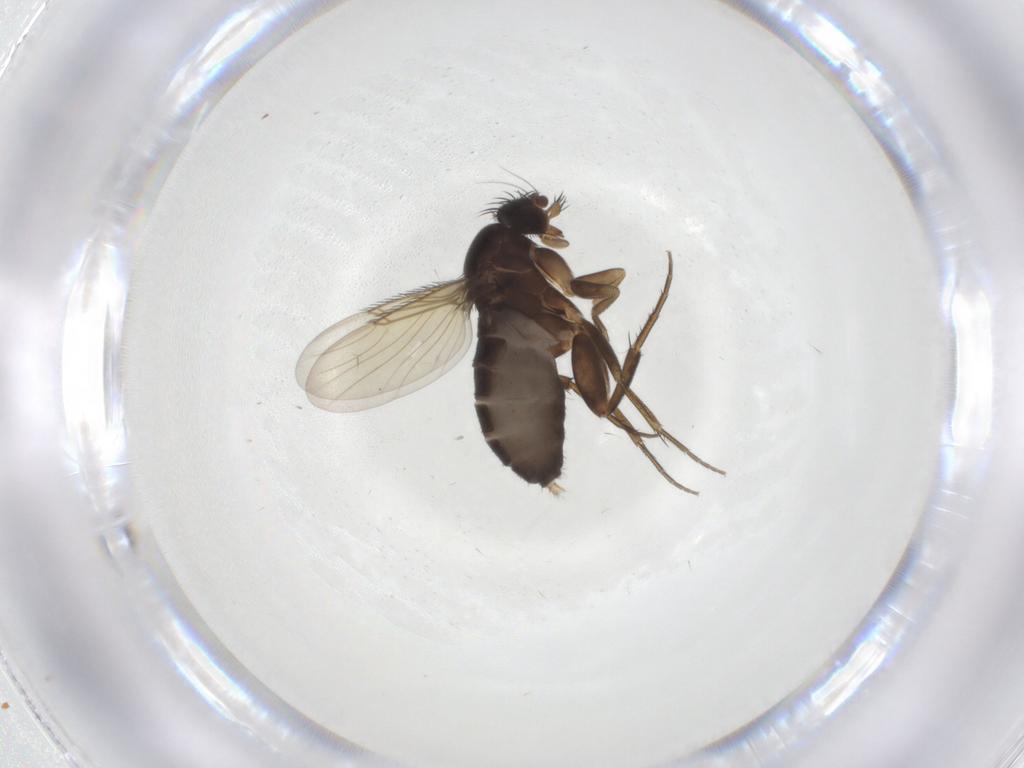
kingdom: Animalia
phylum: Arthropoda
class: Insecta
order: Diptera
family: Phoridae
